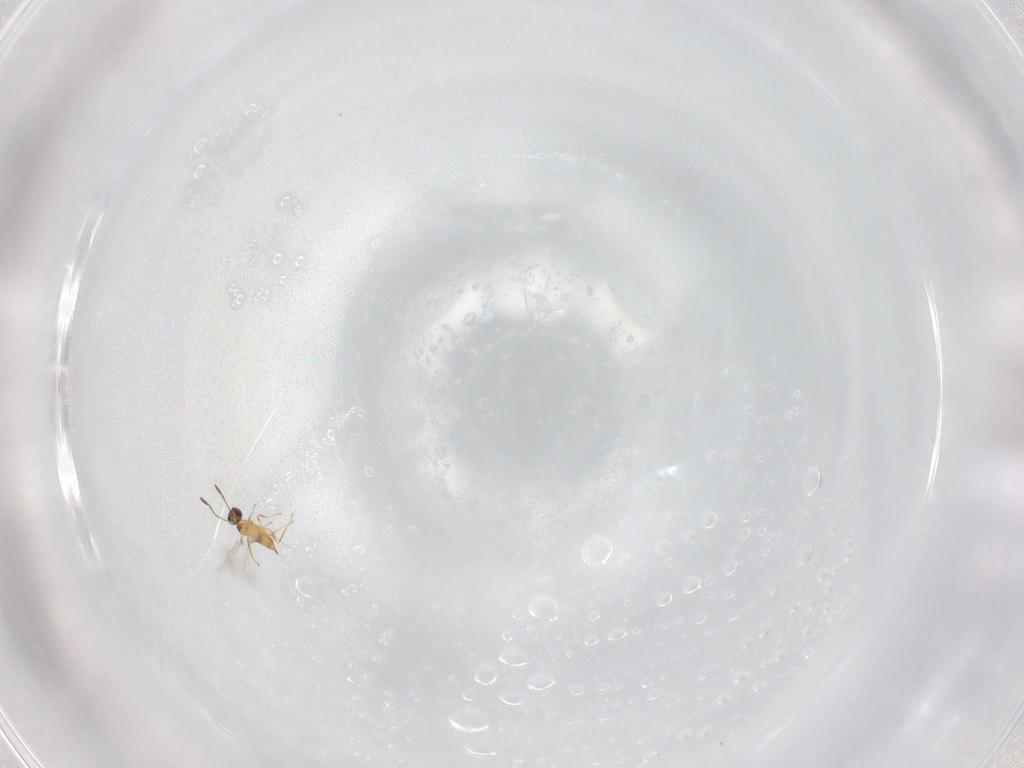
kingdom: Animalia
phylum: Arthropoda
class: Insecta
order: Hymenoptera
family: Mymaridae
